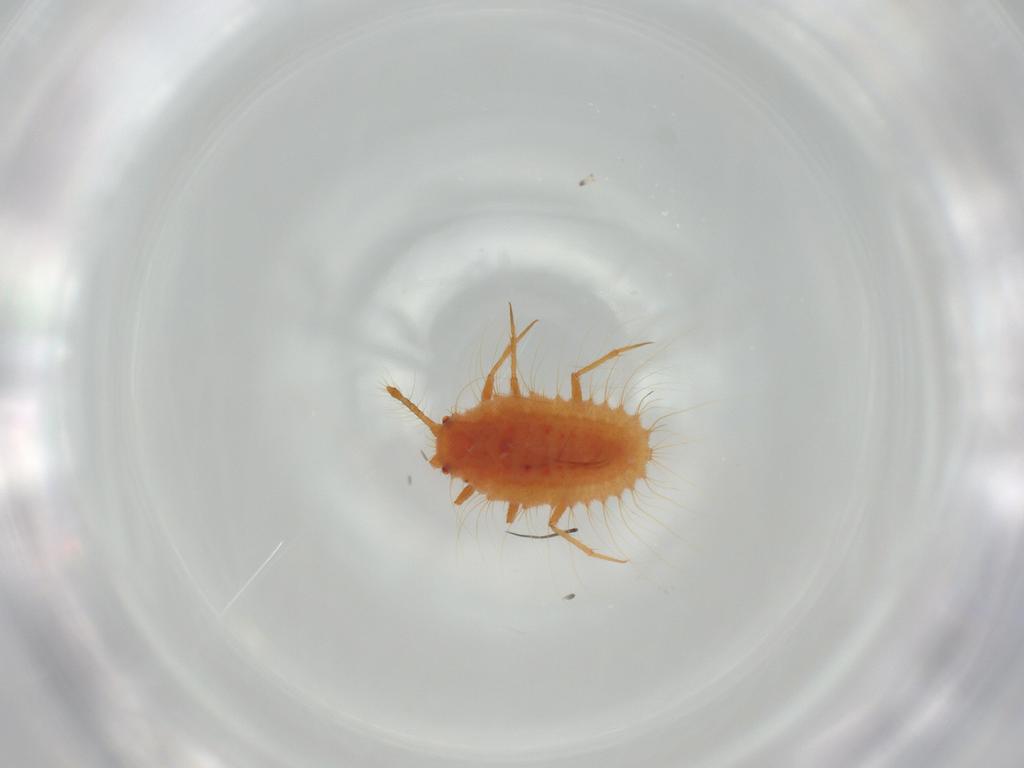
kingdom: Animalia
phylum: Arthropoda
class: Insecta
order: Hemiptera
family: Coccoidea_incertae_sedis
